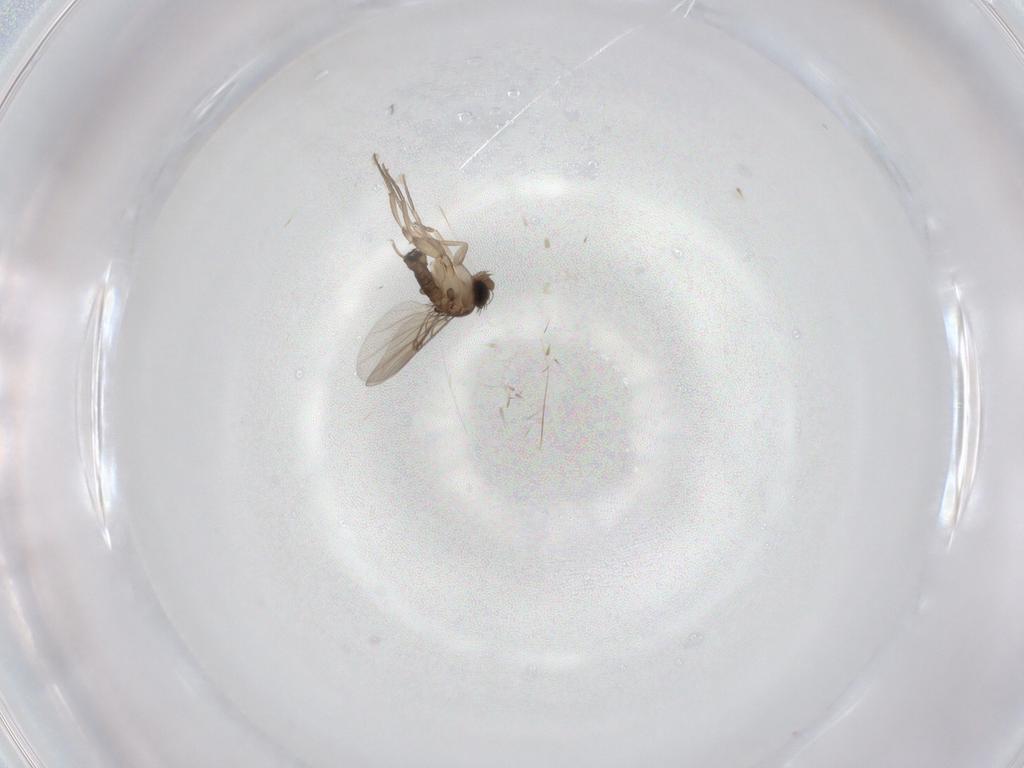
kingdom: Animalia
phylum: Arthropoda
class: Insecta
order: Diptera
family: Phoridae
